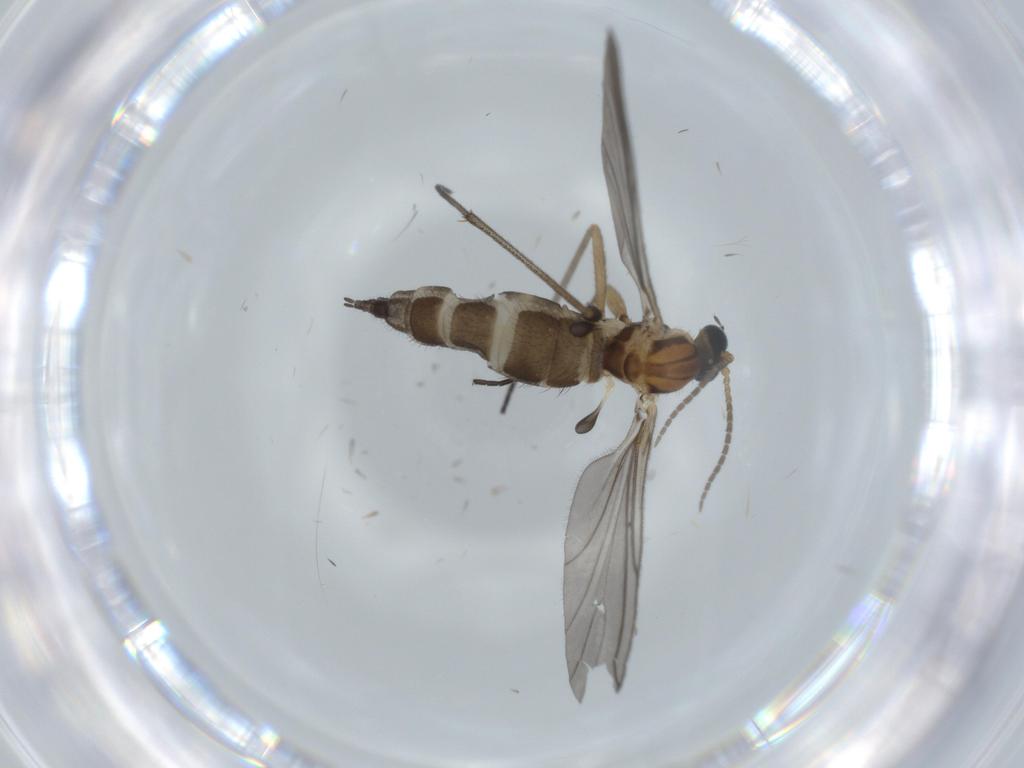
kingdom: Animalia
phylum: Arthropoda
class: Insecta
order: Diptera
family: Sciaridae
